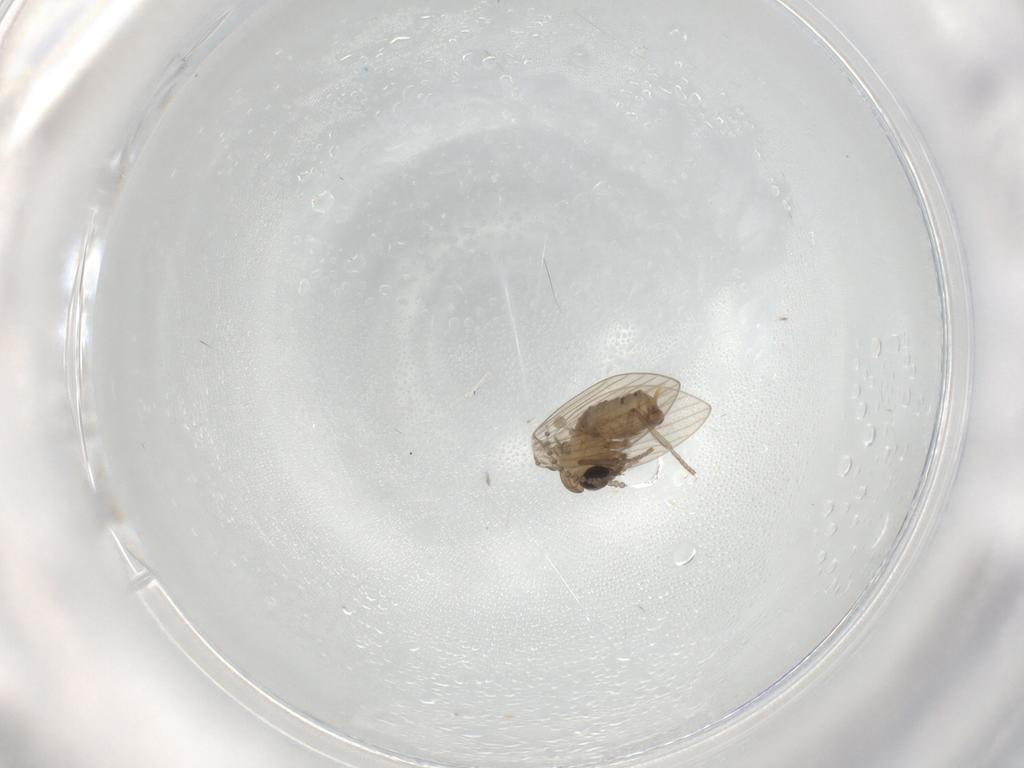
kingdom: Animalia
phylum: Arthropoda
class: Insecta
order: Diptera
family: Psychodidae
